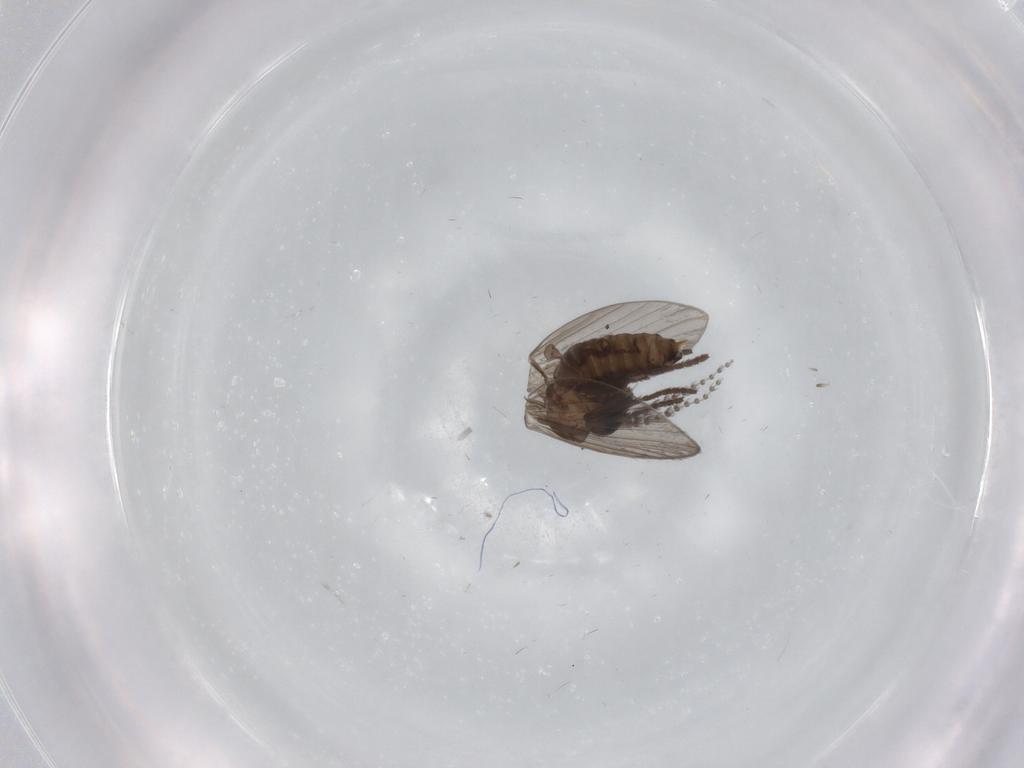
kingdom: Animalia
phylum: Arthropoda
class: Insecta
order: Diptera
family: Psychodidae
